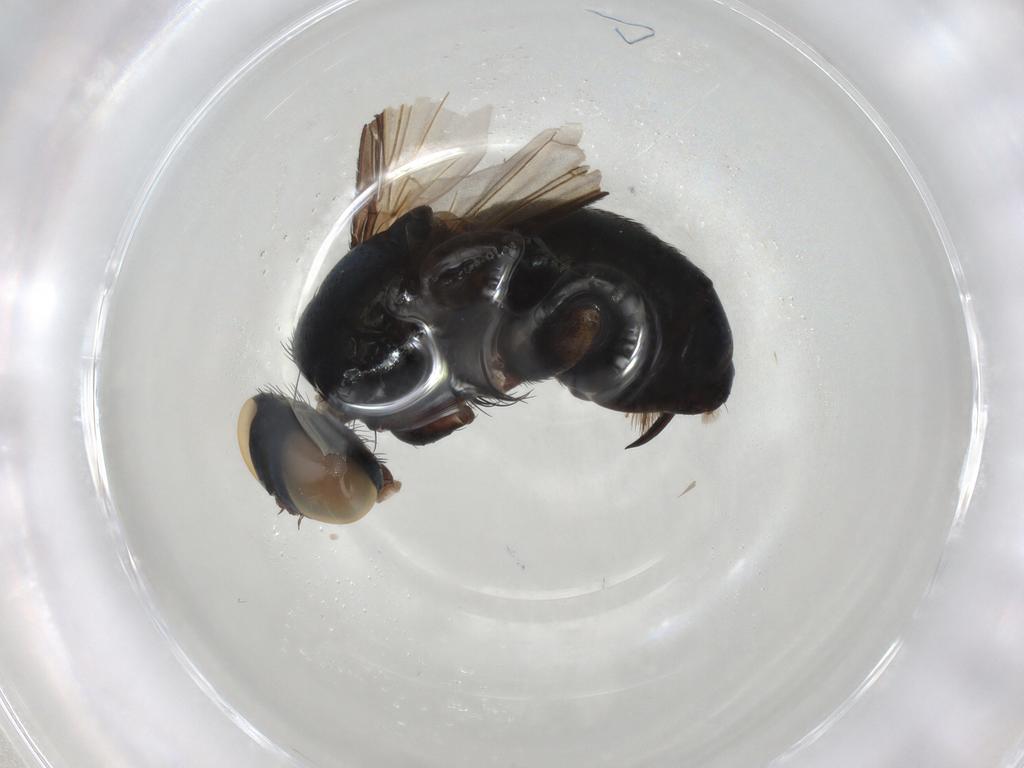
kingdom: Animalia
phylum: Arthropoda
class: Insecta
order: Diptera
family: Tachinidae
